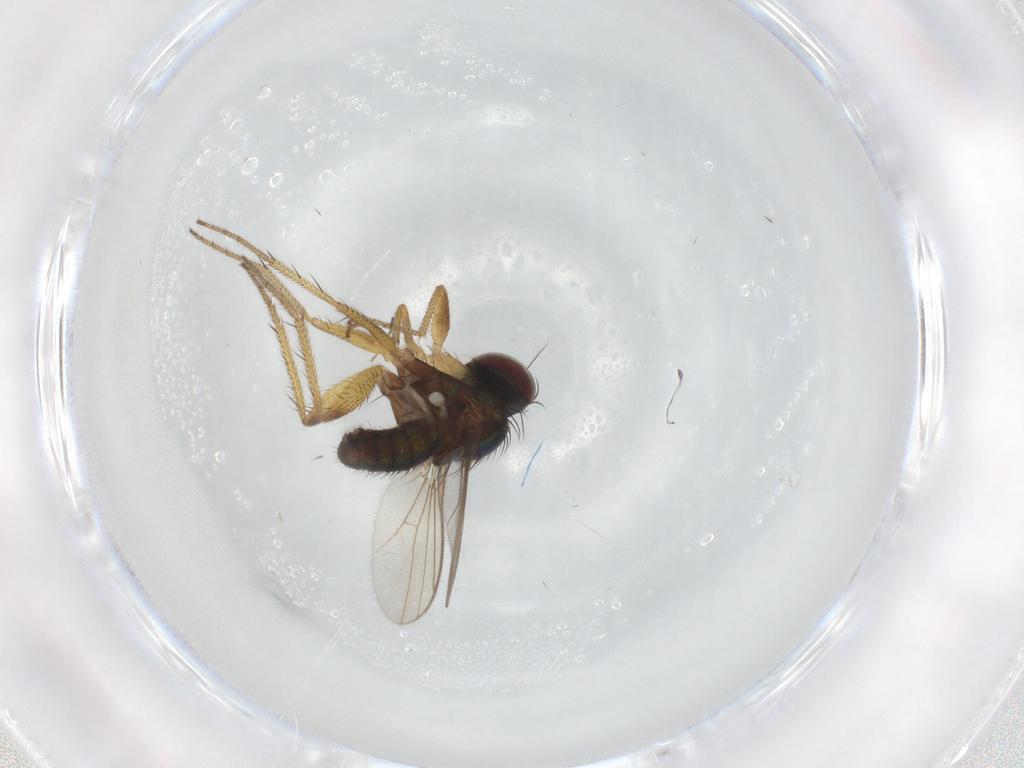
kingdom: Animalia
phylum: Arthropoda
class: Insecta
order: Diptera
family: Dolichopodidae
